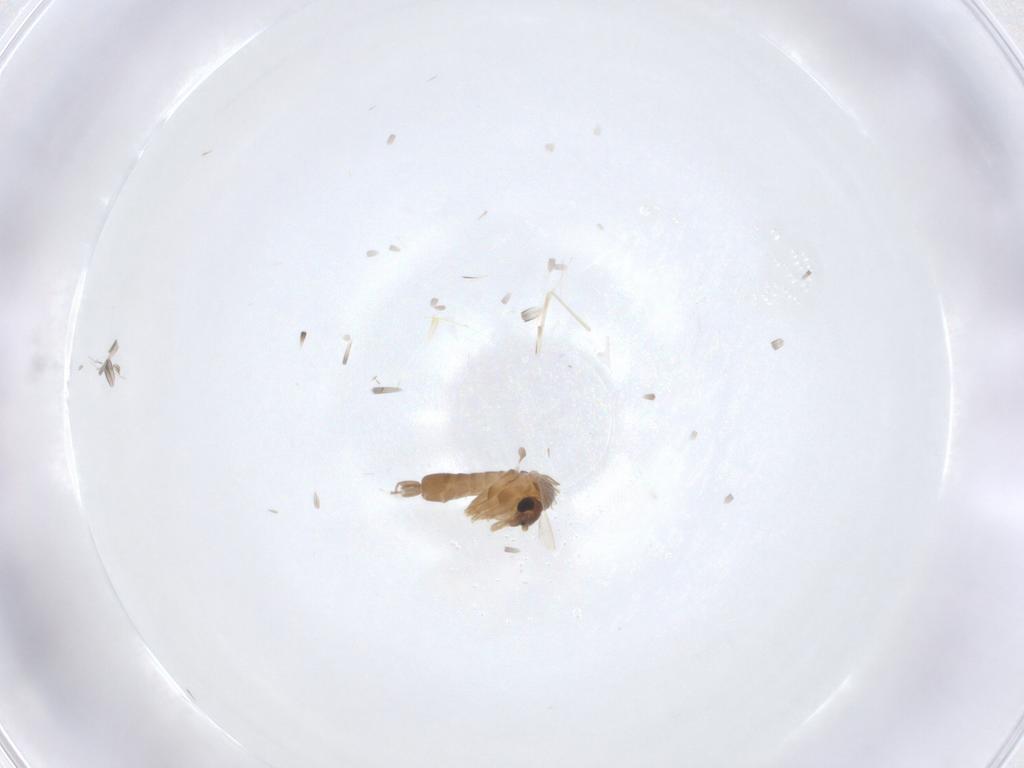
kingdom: Animalia
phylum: Arthropoda
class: Insecta
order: Diptera
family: Psychodidae
